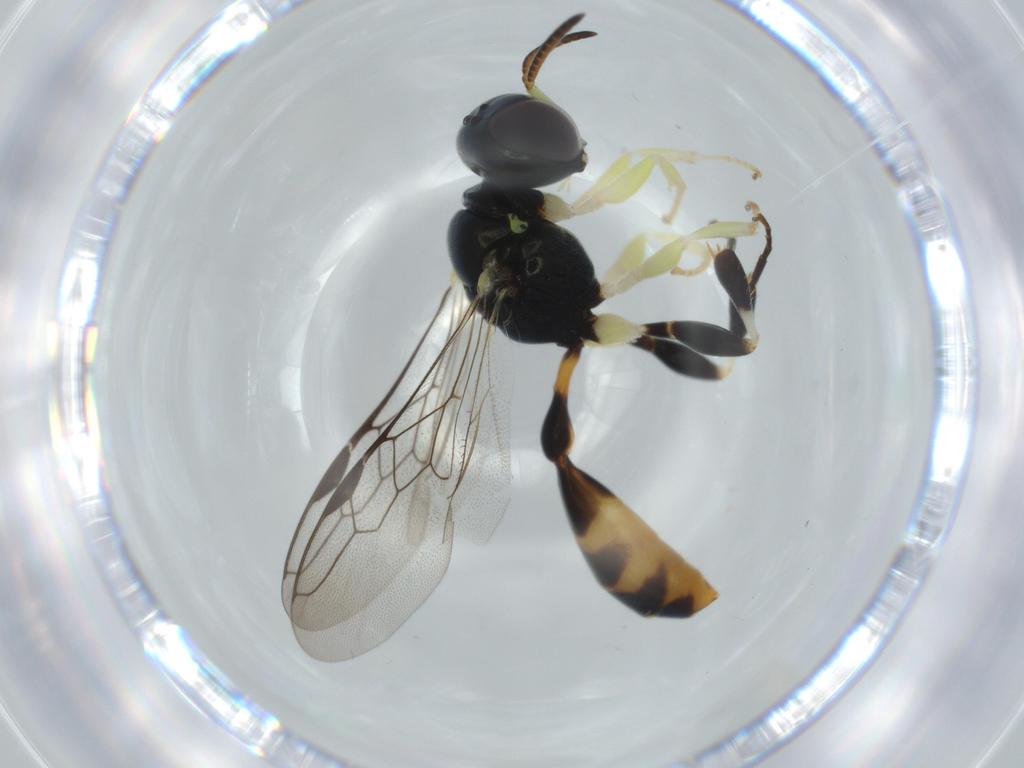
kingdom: Animalia
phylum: Arthropoda
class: Insecta
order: Hymenoptera
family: Crabronidae
